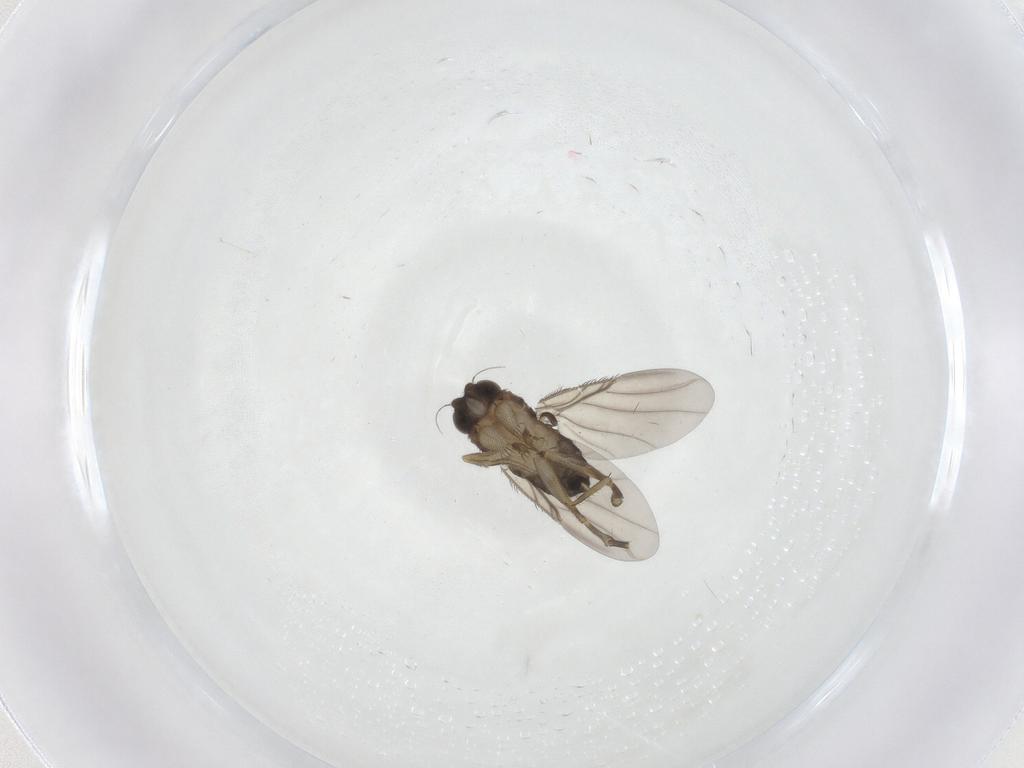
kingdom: Animalia
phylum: Arthropoda
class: Insecta
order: Diptera
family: Phoridae
